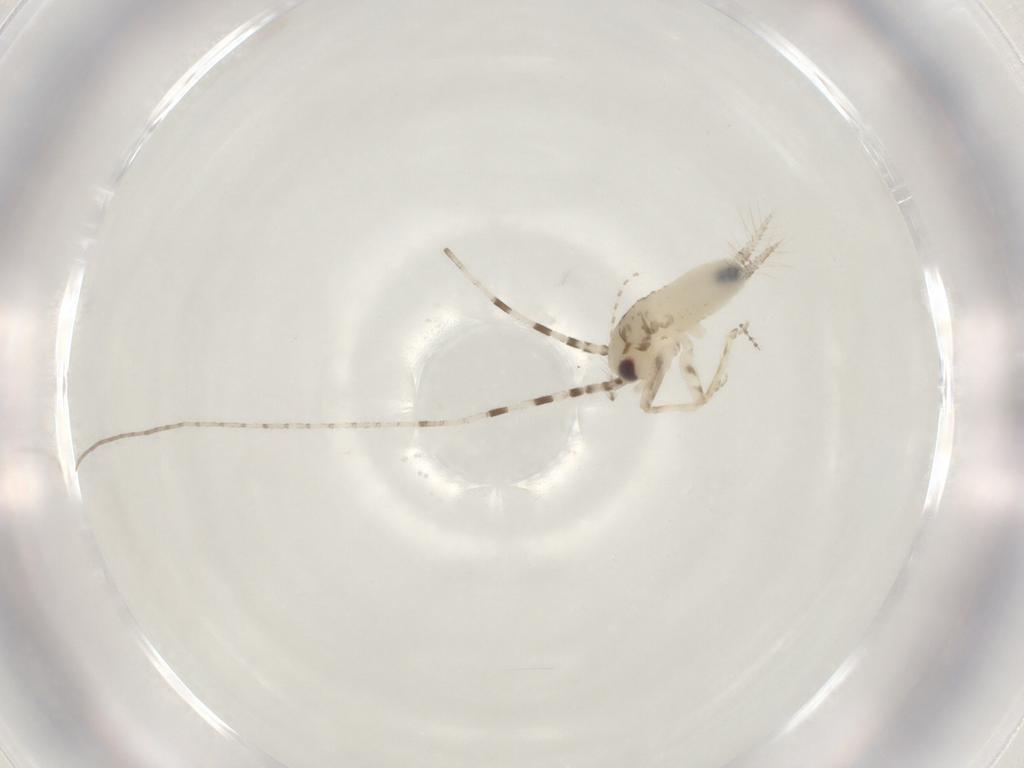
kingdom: Animalia
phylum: Arthropoda
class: Insecta
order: Orthoptera
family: Trigonidiidae
